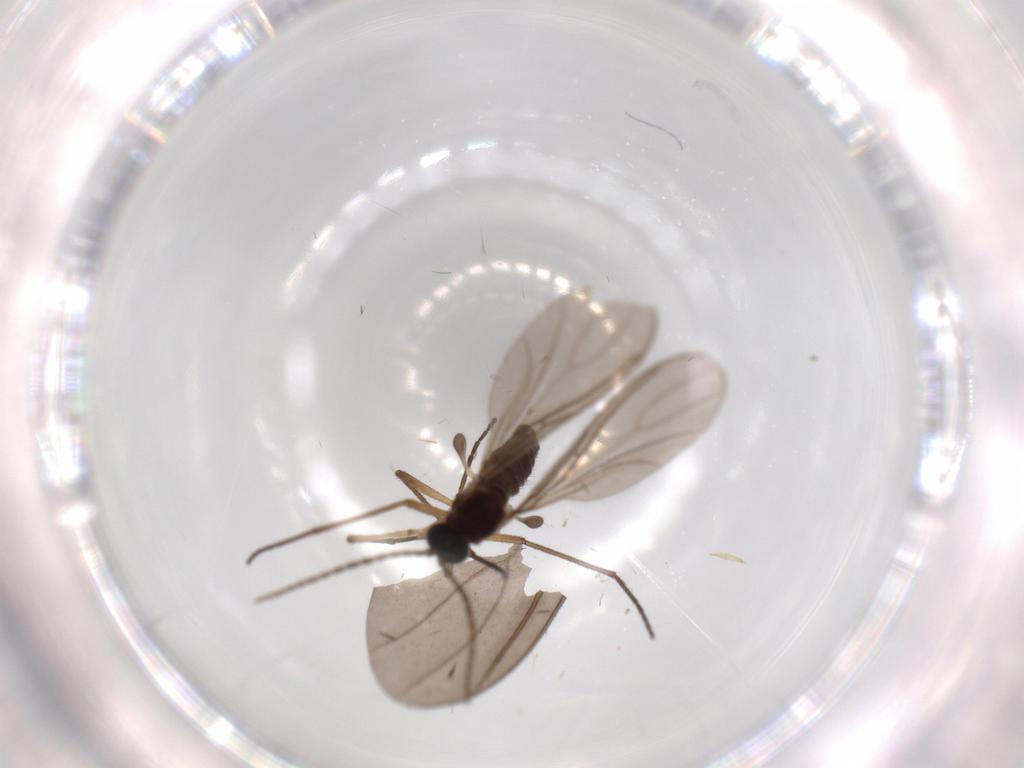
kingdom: Animalia
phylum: Arthropoda
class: Insecta
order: Diptera
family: Sciaridae
